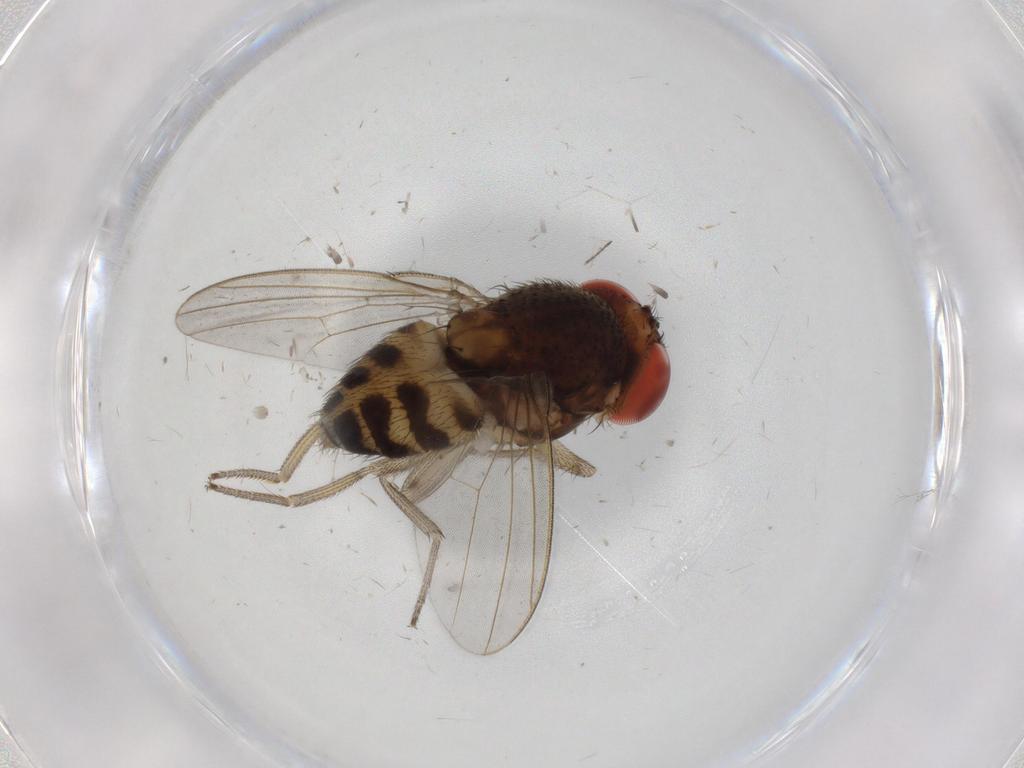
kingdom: Animalia
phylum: Arthropoda
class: Insecta
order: Diptera
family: Drosophilidae
